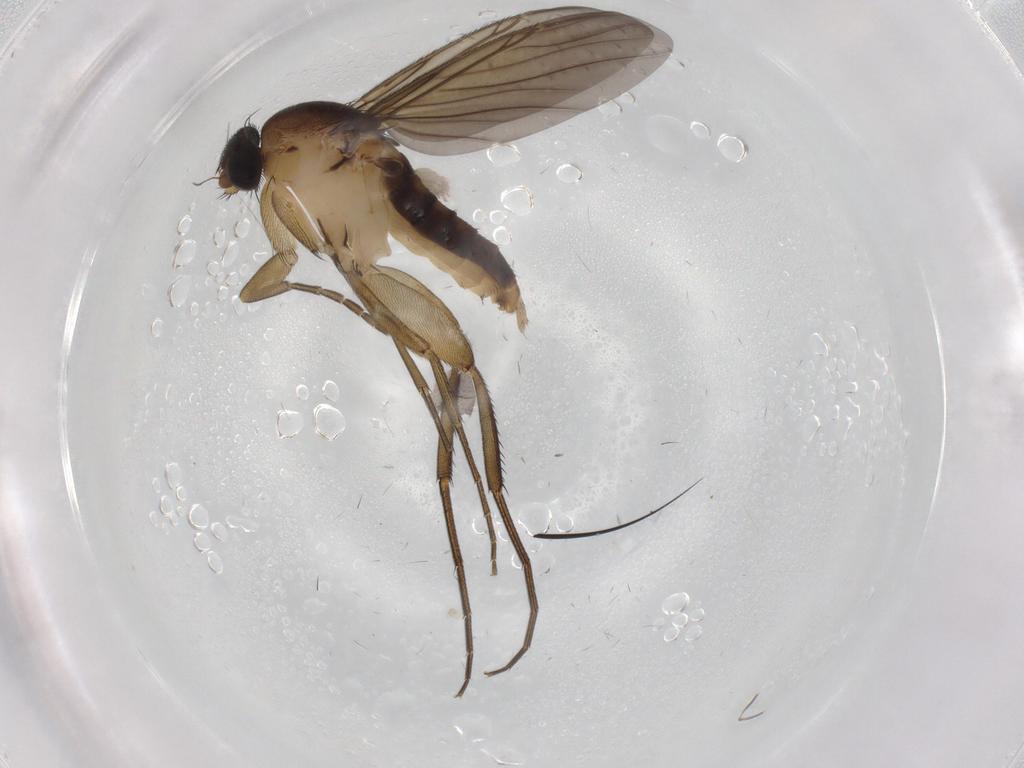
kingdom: Animalia
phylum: Arthropoda
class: Insecta
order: Diptera
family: Phoridae
